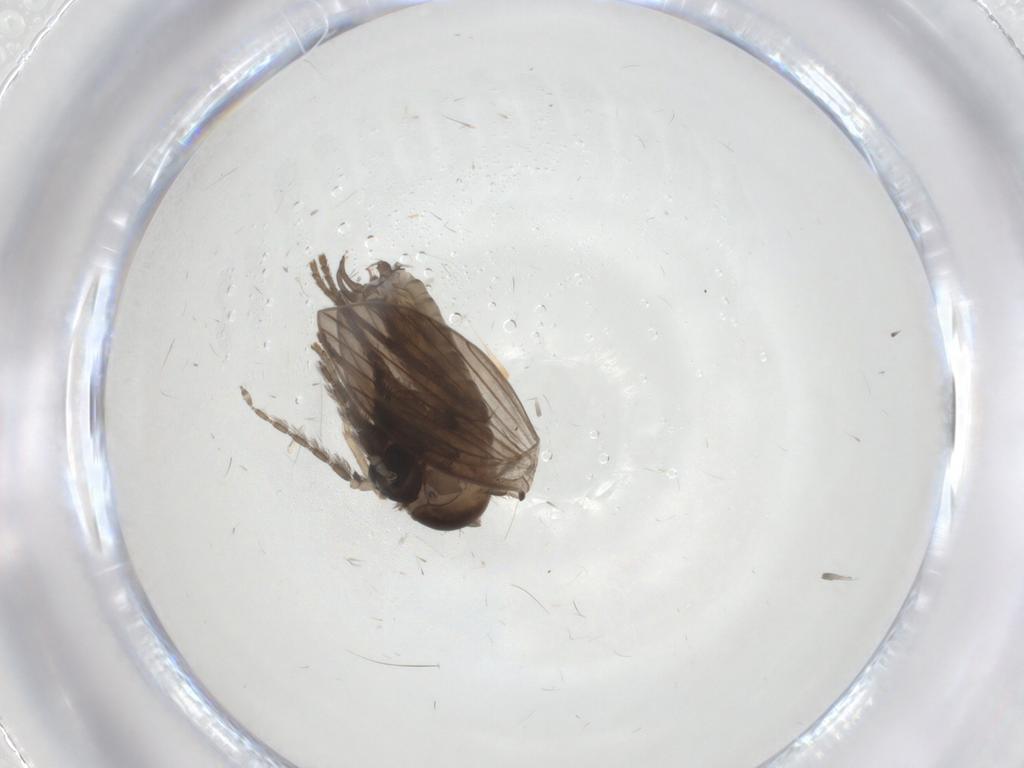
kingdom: Animalia
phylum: Arthropoda
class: Insecta
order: Diptera
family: Psychodidae
